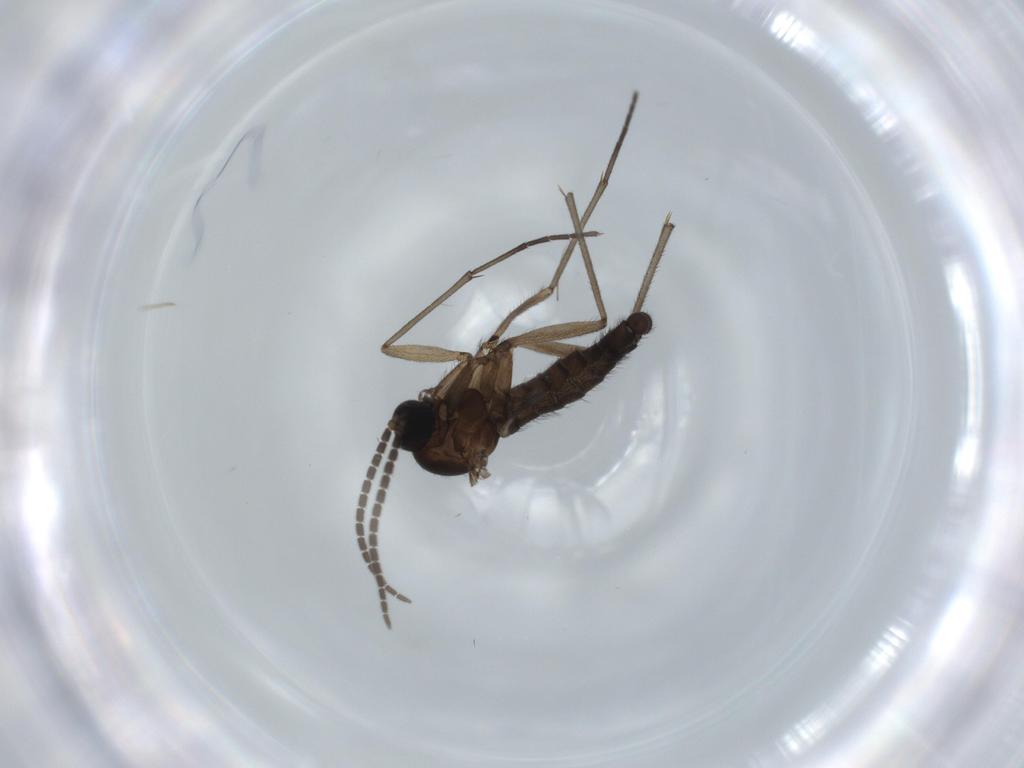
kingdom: Animalia
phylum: Arthropoda
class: Insecta
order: Diptera
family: Sciaridae
